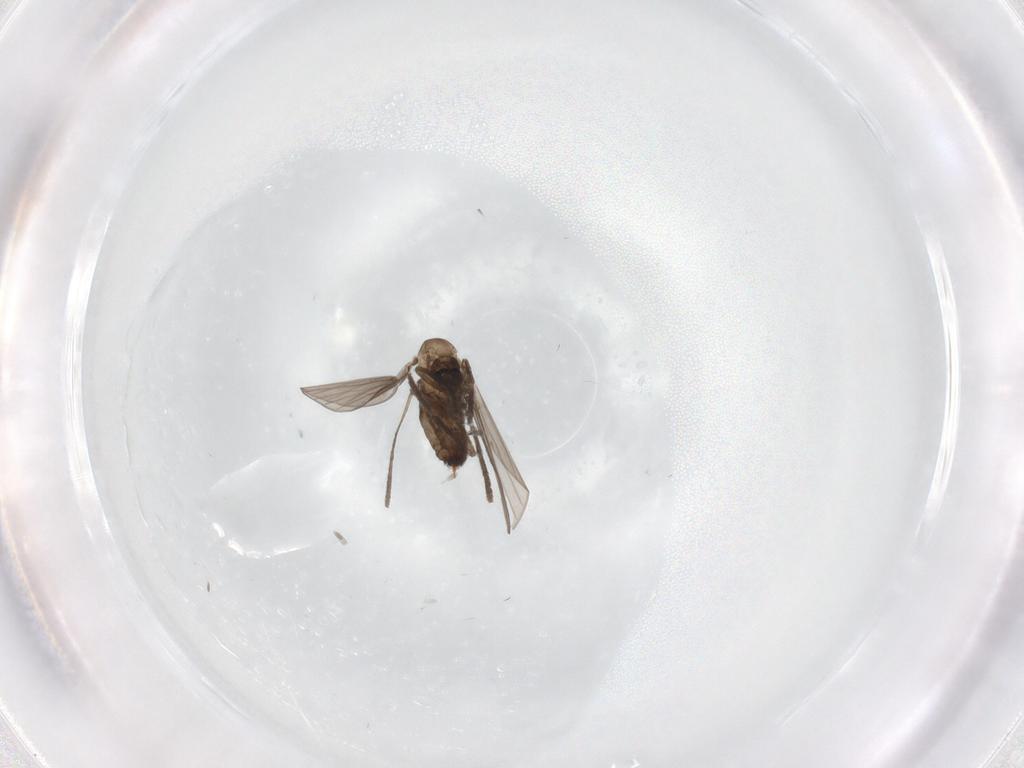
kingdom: Animalia
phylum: Arthropoda
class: Insecta
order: Diptera
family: Psychodidae
